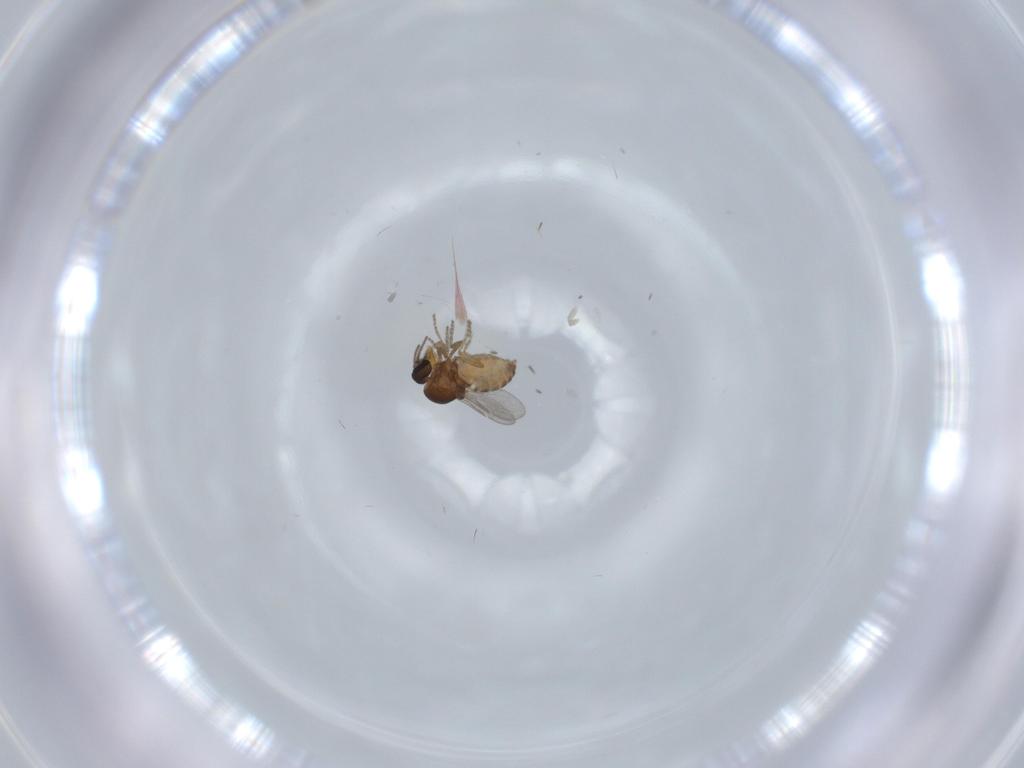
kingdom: Animalia
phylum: Arthropoda
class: Insecta
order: Diptera
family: Ceratopogonidae
